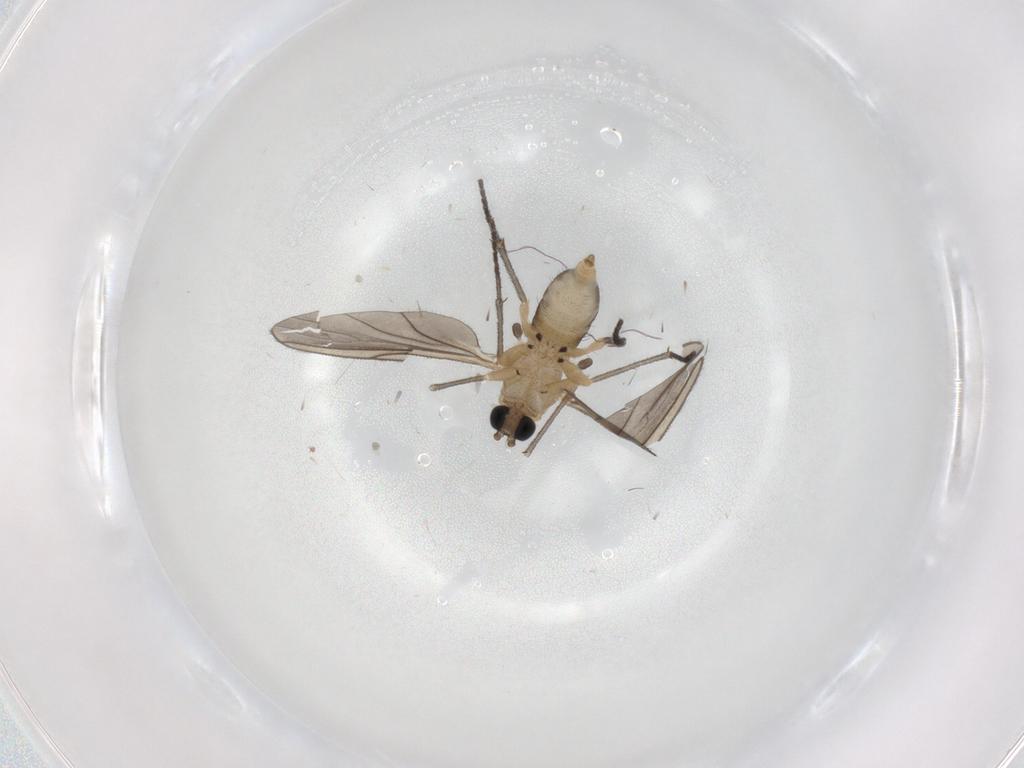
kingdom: Animalia
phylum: Arthropoda
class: Insecta
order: Diptera
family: Sciaridae
